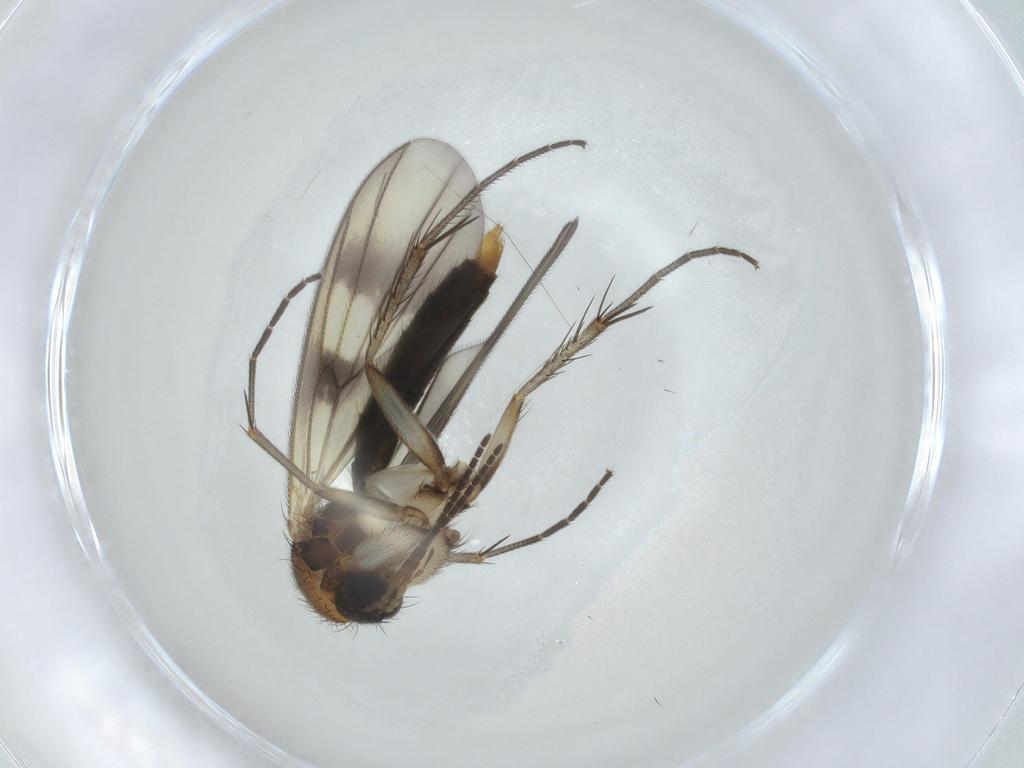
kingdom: Animalia
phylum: Arthropoda
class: Insecta
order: Diptera
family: Mycetophilidae
